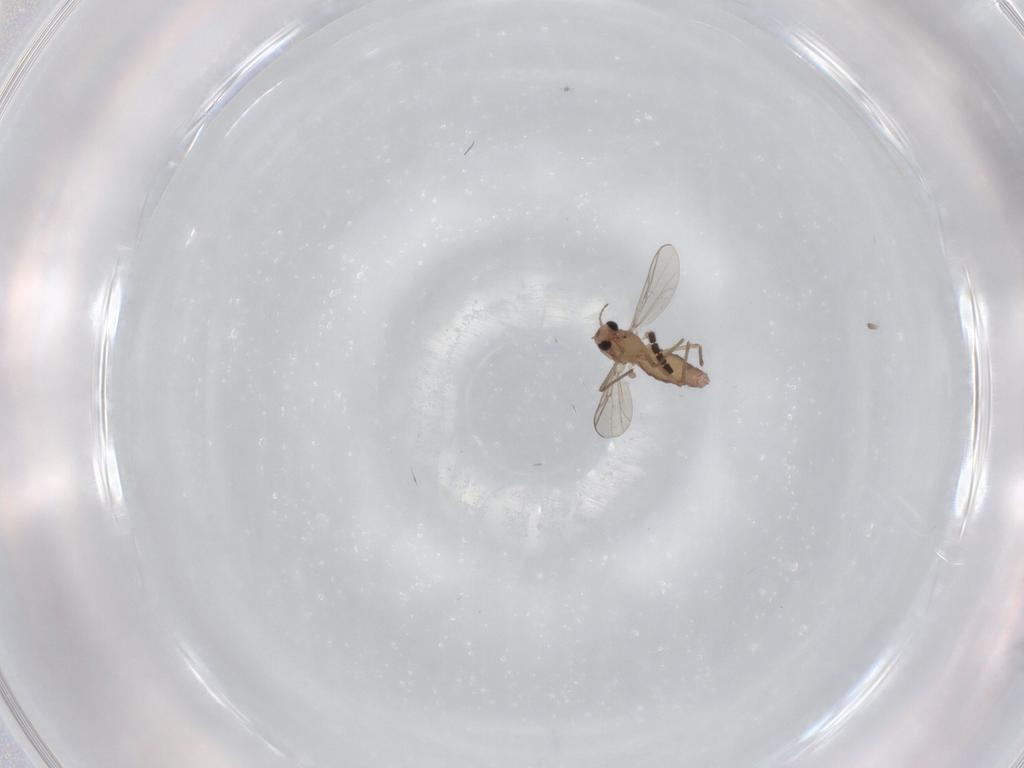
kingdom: Animalia
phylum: Arthropoda
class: Insecta
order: Diptera
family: Chironomidae
